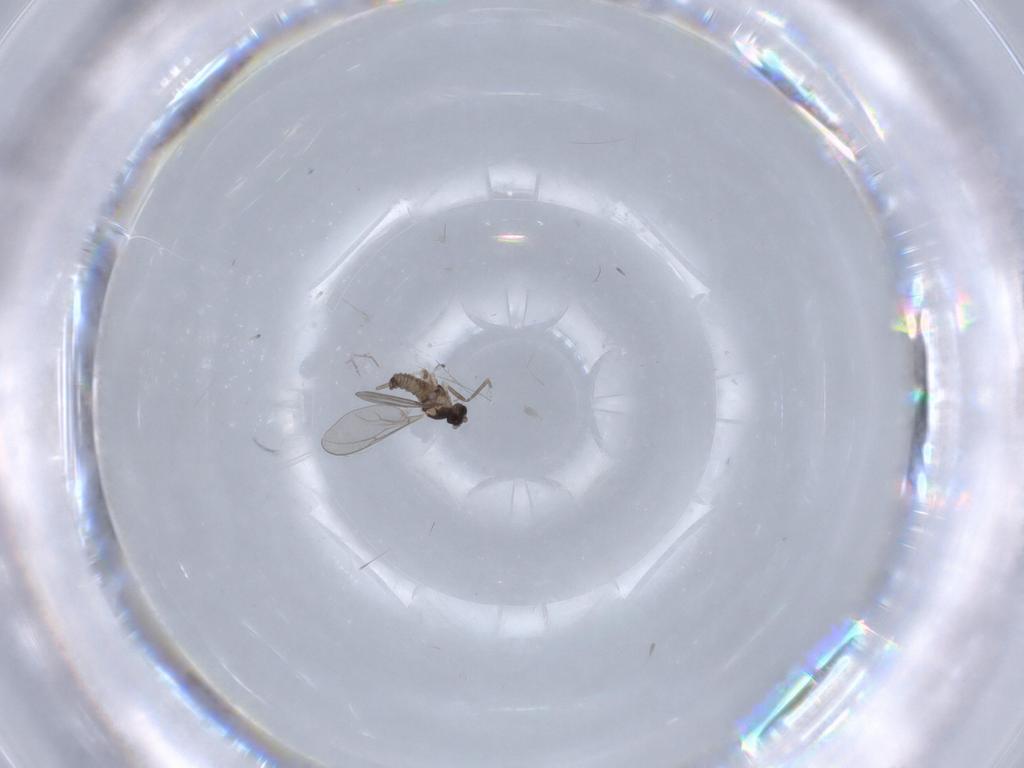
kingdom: Animalia
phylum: Arthropoda
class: Insecta
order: Diptera
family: Cecidomyiidae
